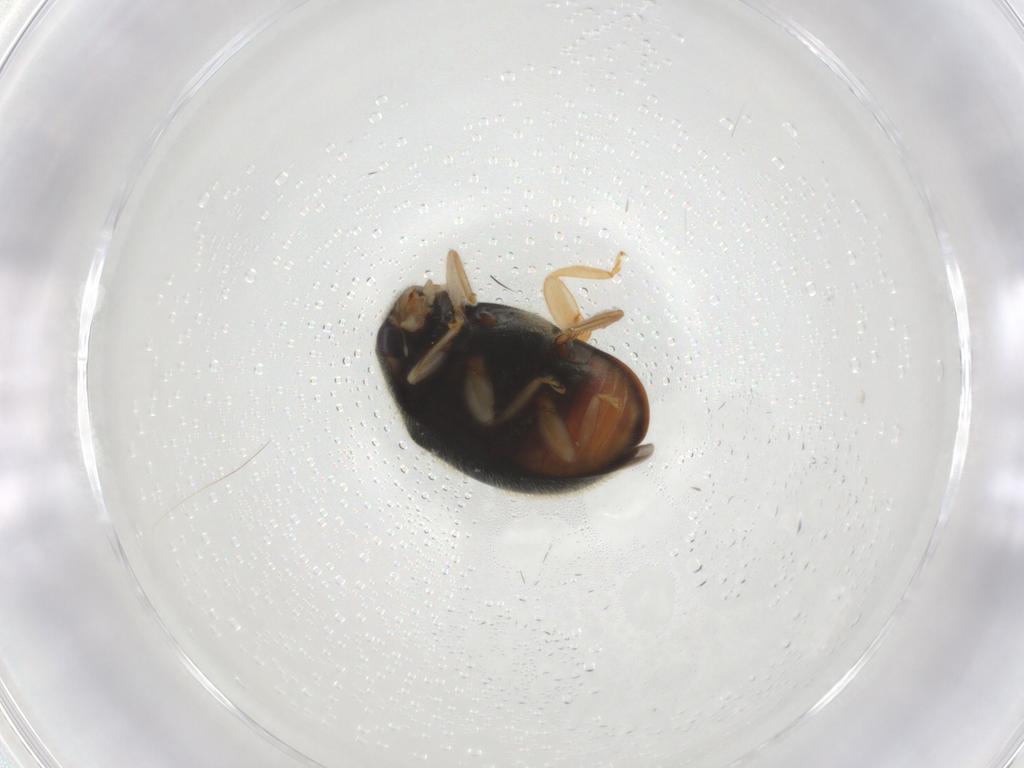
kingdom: Animalia
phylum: Arthropoda
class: Insecta
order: Coleoptera
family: Coccinellidae
